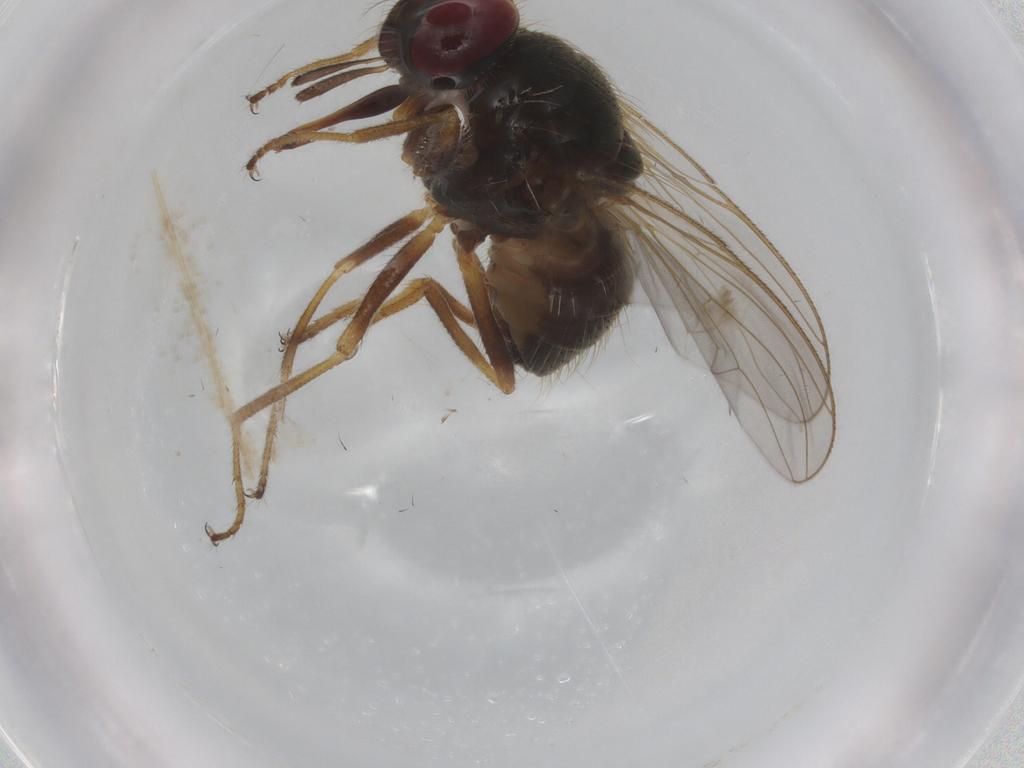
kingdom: Animalia
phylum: Arthropoda
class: Insecta
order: Diptera
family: Muscidae
